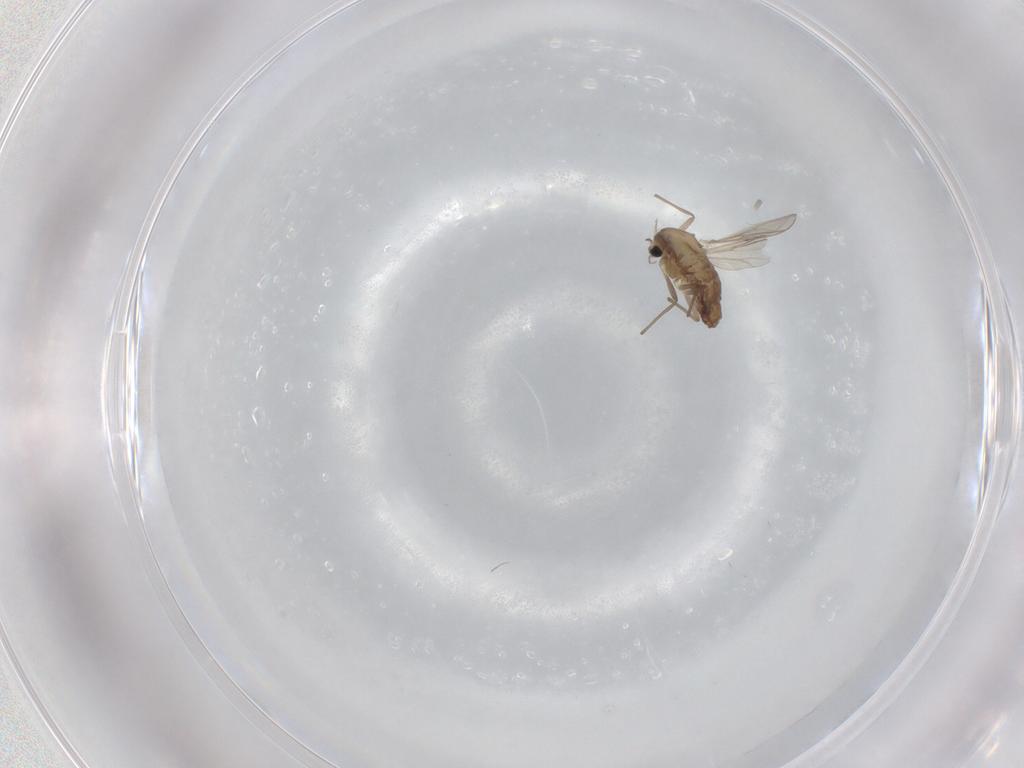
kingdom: Animalia
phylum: Arthropoda
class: Insecta
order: Diptera
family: Chironomidae
